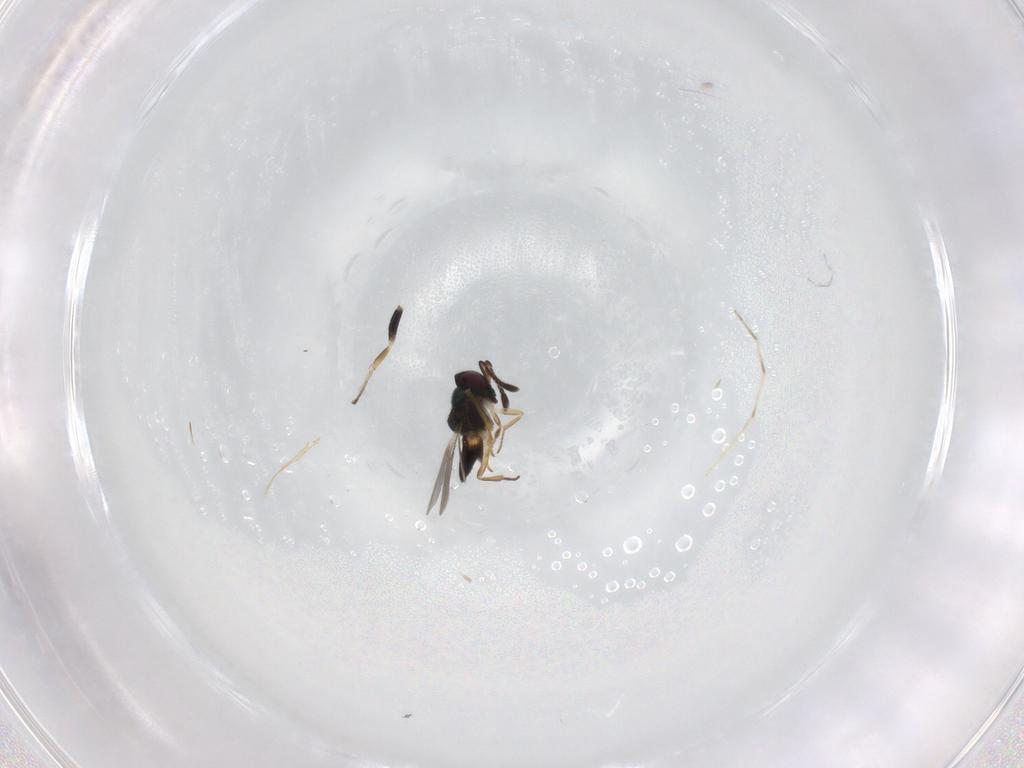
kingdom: Animalia
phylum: Arthropoda
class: Insecta
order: Hymenoptera
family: Eupelmidae
